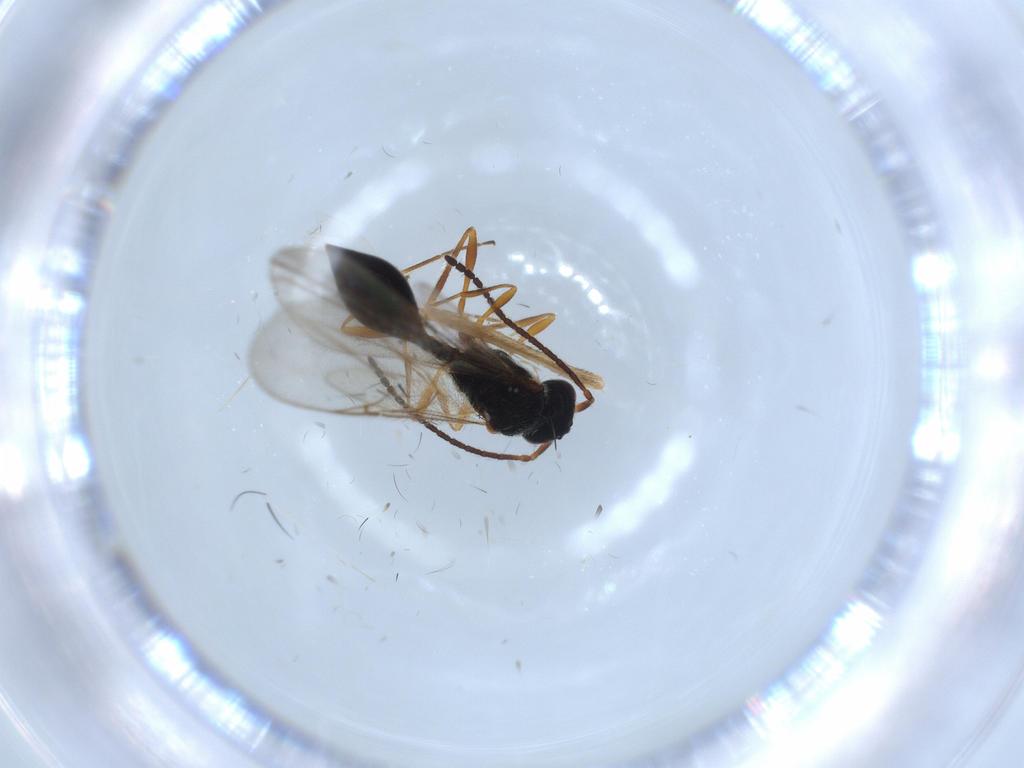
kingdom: Animalia
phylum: Arthropoda
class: Insecta
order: Hymenoptera
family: Diapriidae
